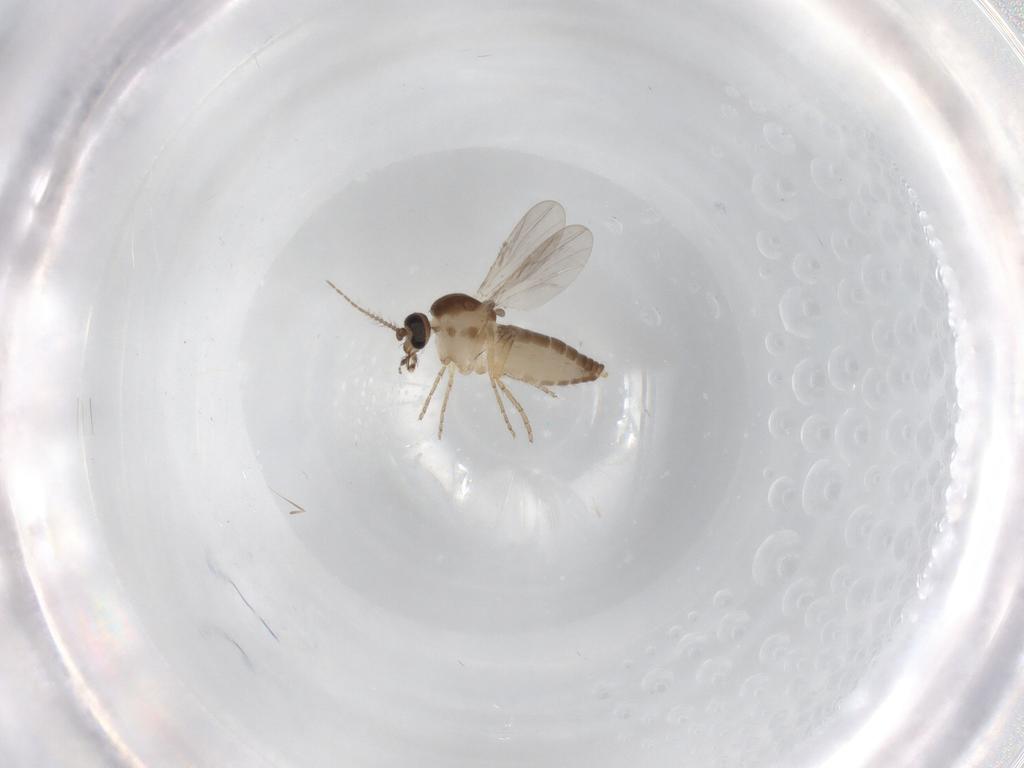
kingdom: Animalia
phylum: Arthropoda
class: Insecta
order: Diptera
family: Ceratopogonidae
